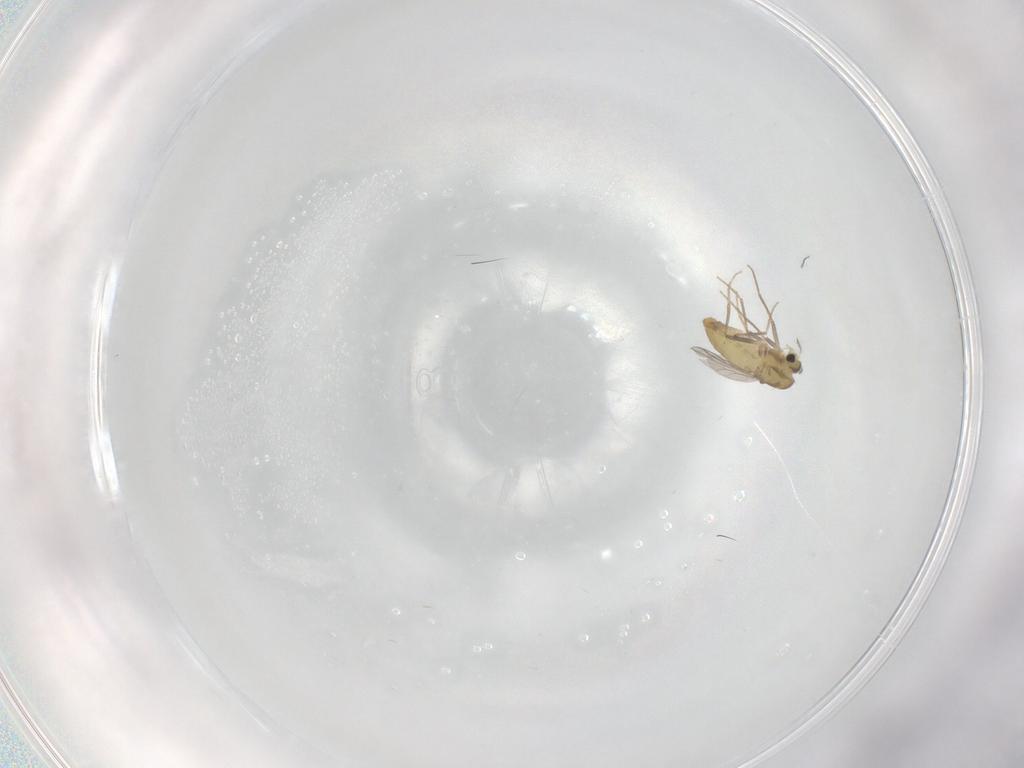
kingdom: Animalia
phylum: Arthropoda
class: Insecta
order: Diptera
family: Chironomidae
